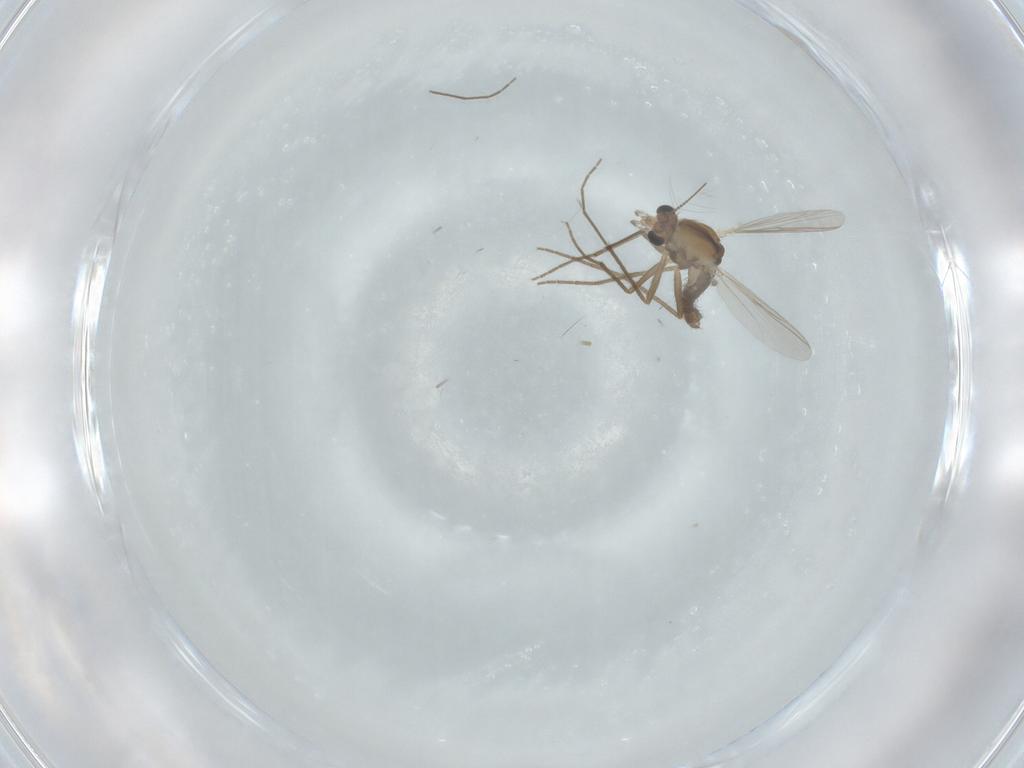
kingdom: Animalia
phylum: Arthropoda
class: Insecta
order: Diptera
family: Chironomidae
